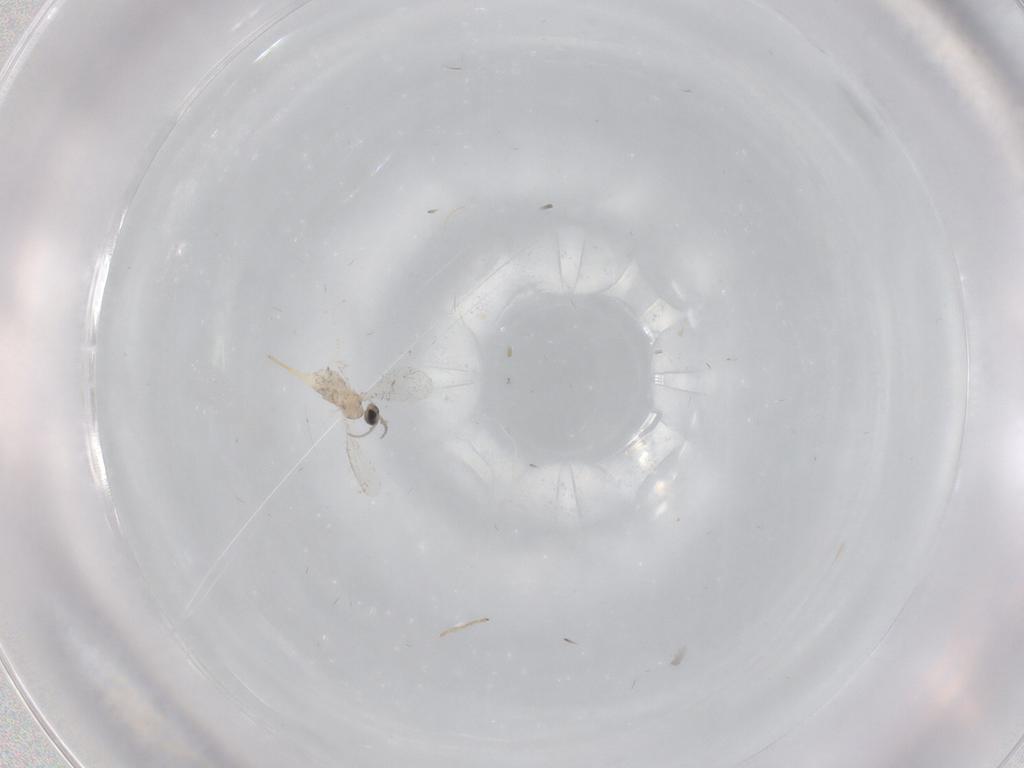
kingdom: Animalia
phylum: Arthropoda
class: Insecta
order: Diptera
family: Cecidomyiidae
